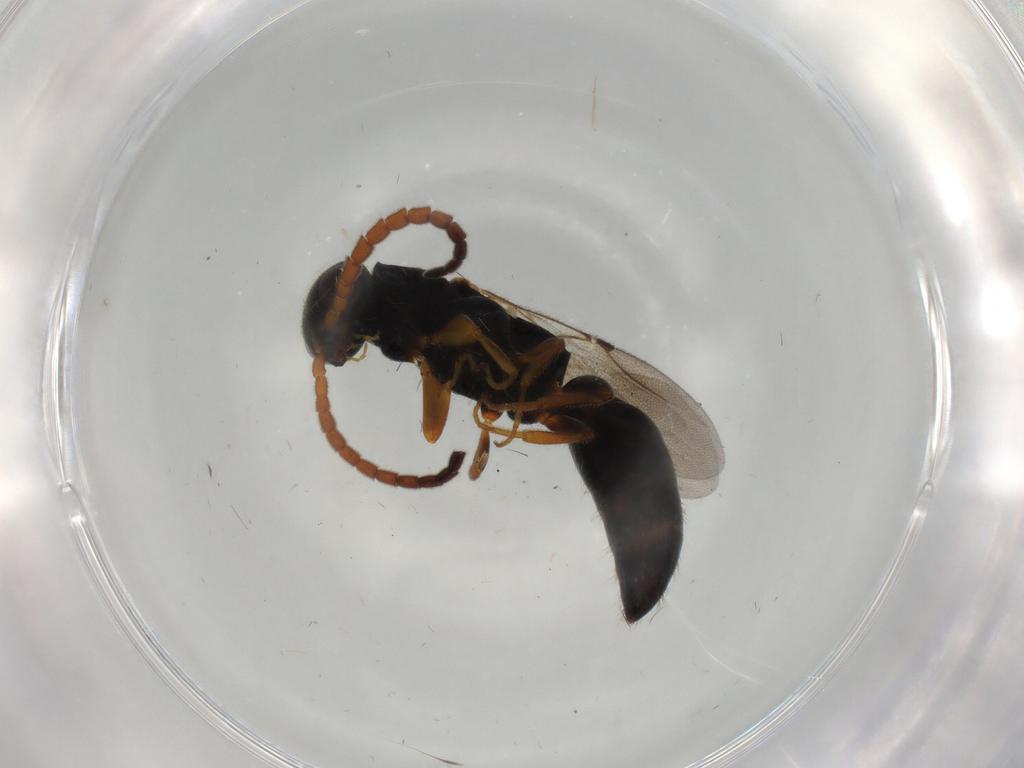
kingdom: Animalia
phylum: Arthropoda
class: Insecta
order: Hymenoptera
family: Bethylidae
